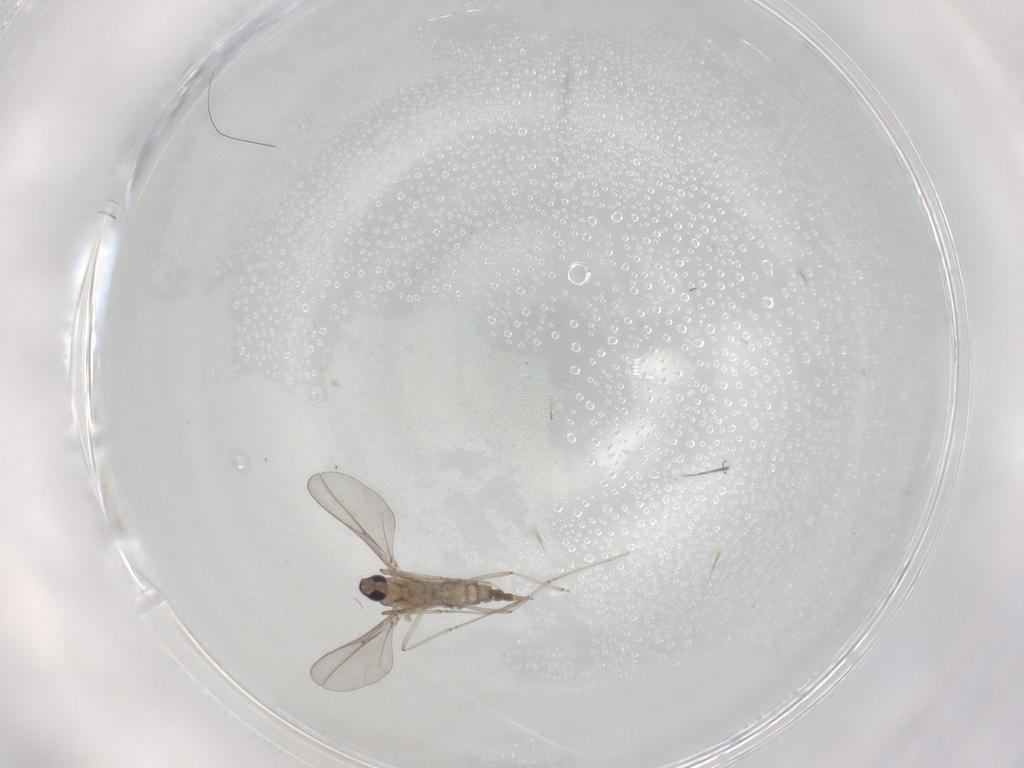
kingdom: Animalia
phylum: Arthropoda
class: Insecta
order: Diptera
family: Cecidomyiidae
